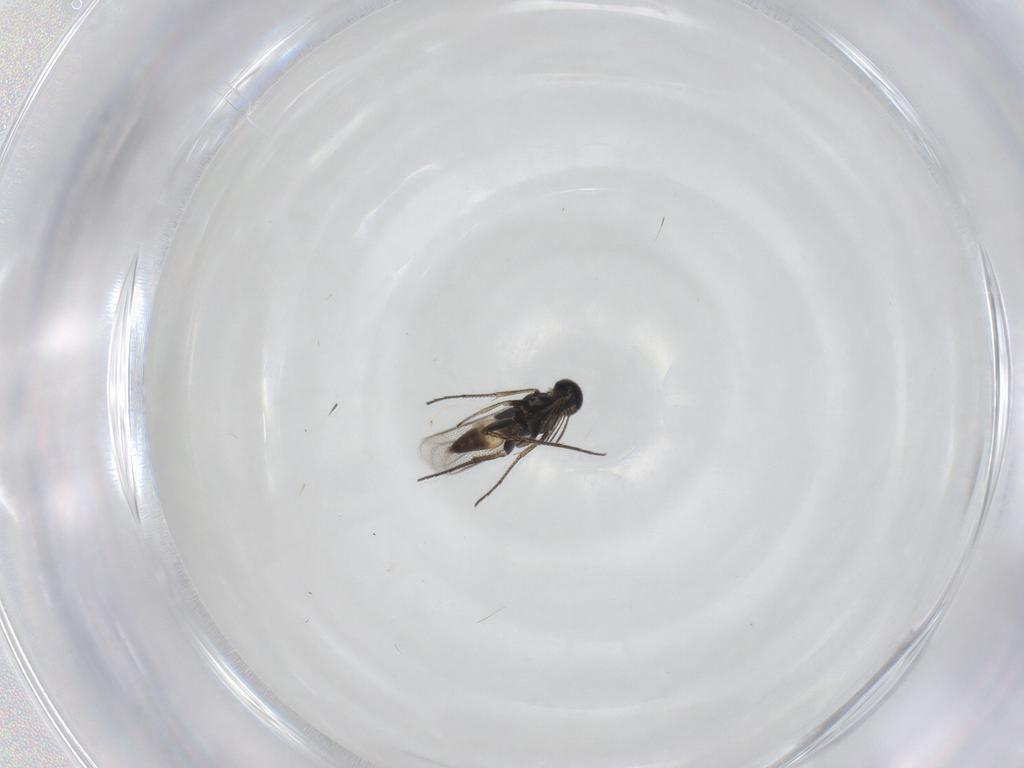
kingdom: Animalia
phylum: Arthropoda
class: Insecta
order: Hymenoptera
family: Eulophidae
